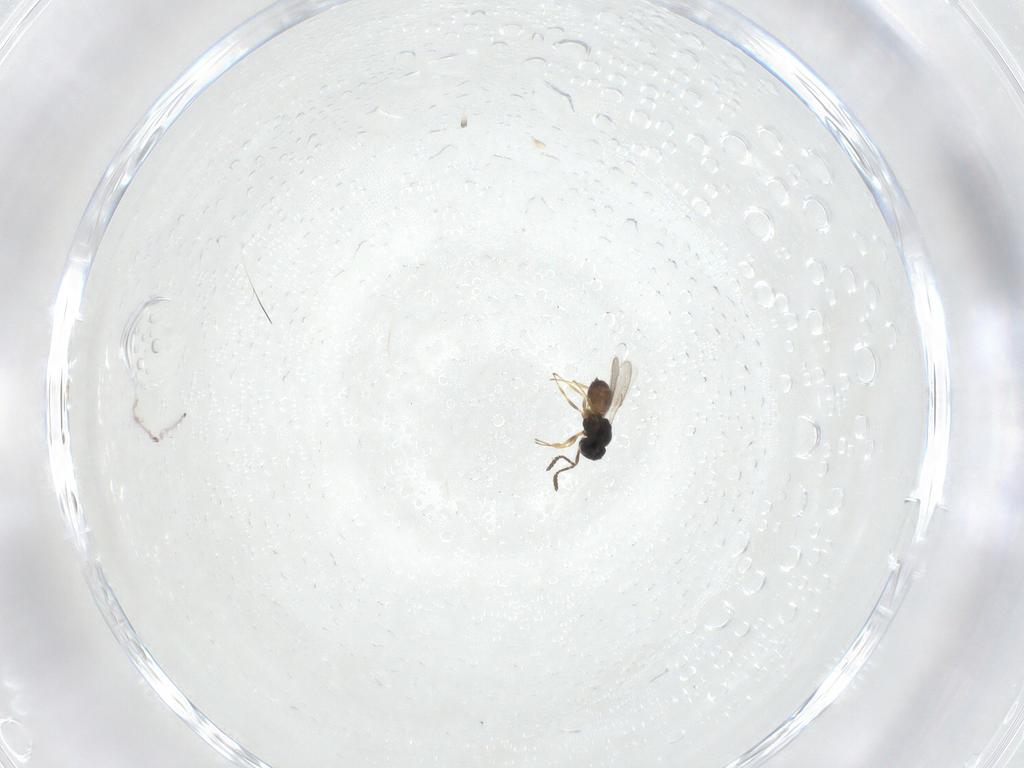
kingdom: Animalia
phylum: Arthropoda
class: Insecta
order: Hymenoptera
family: Scelionidae
